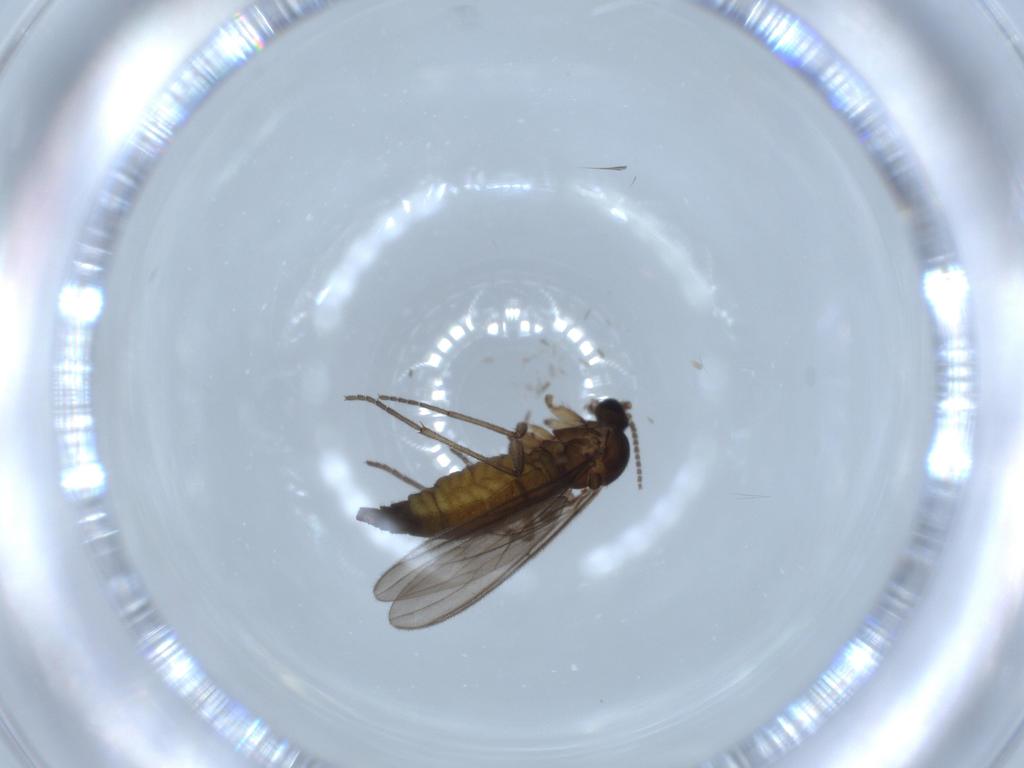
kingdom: Animalia
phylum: Arthropoda
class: Insecta
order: Diptera
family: Sciaridae
